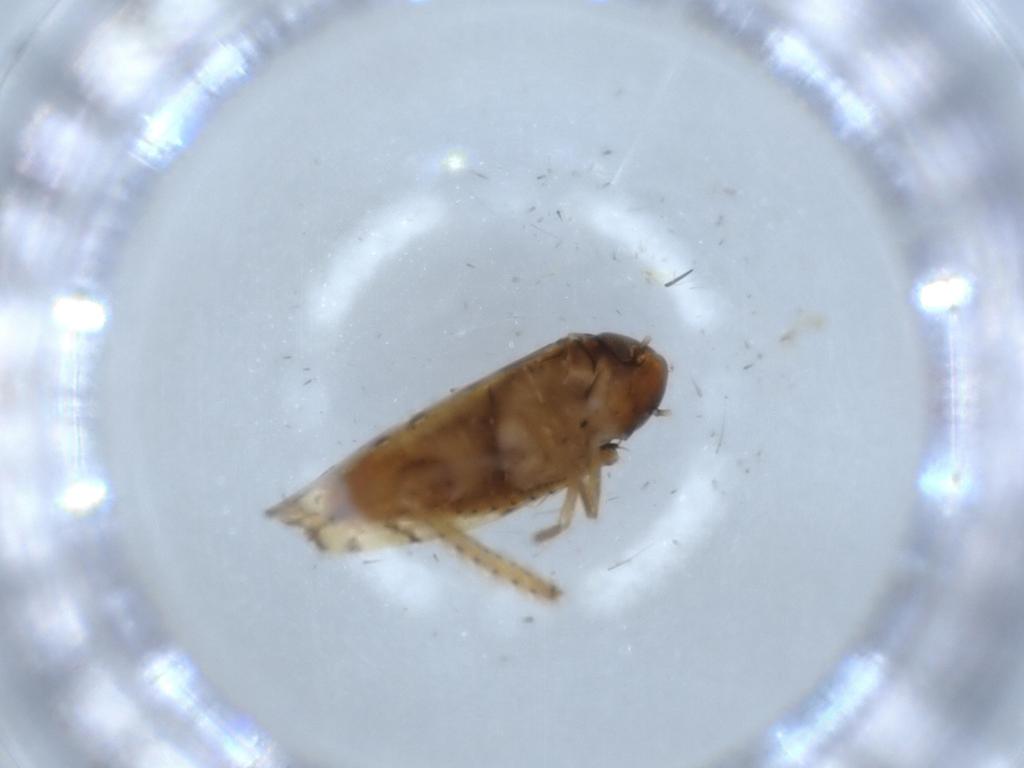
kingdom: Animalia
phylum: Arthropoda
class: Insecta
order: Hemiptera
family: Cicadellidae
